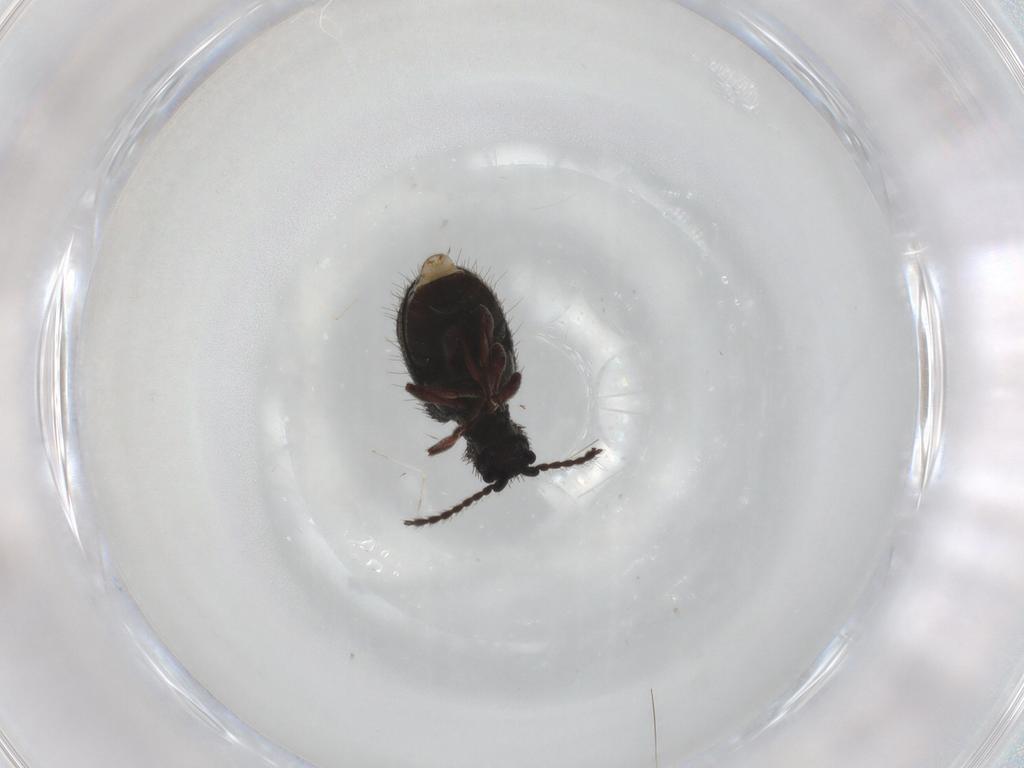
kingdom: Animalia
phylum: Arthropoda
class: Insecta
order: Coleoptera
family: Ptinidae
